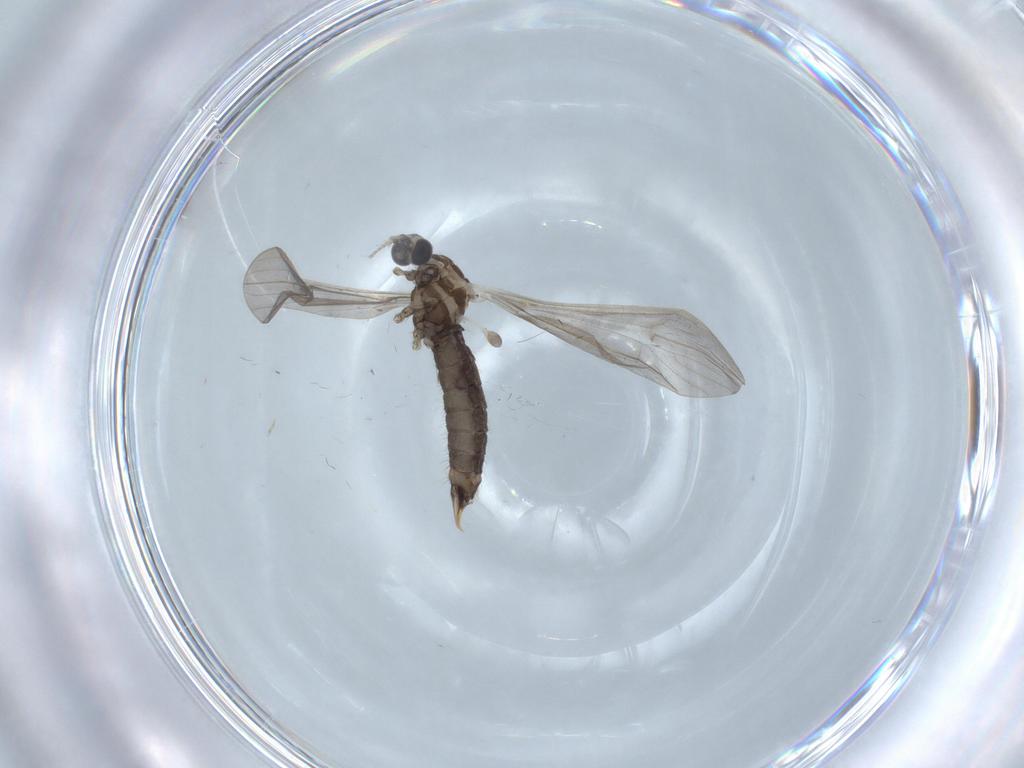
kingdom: Animalia
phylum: Arthropoda
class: Insecta
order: Diptera
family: Limoniidae
